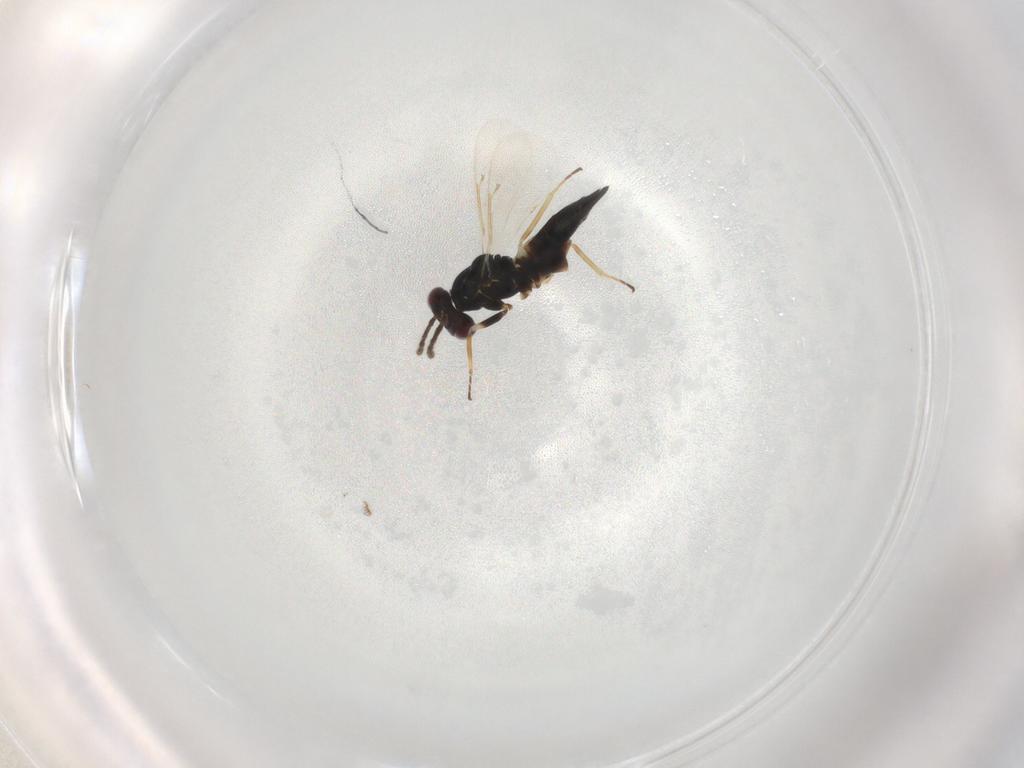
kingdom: Animalia
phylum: Arthropoda
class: Insecta
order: Hymenoptera
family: Eulophidae
